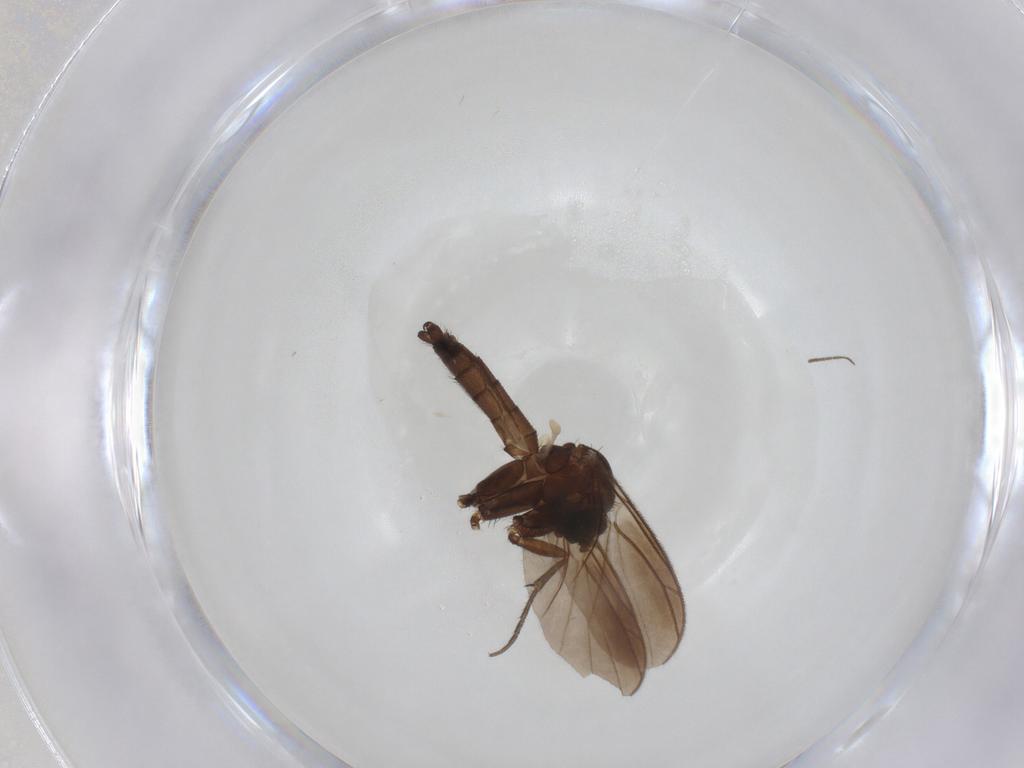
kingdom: Animalia
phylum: Arthropoda
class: Insecta
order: Diptera
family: Keroplatidae
